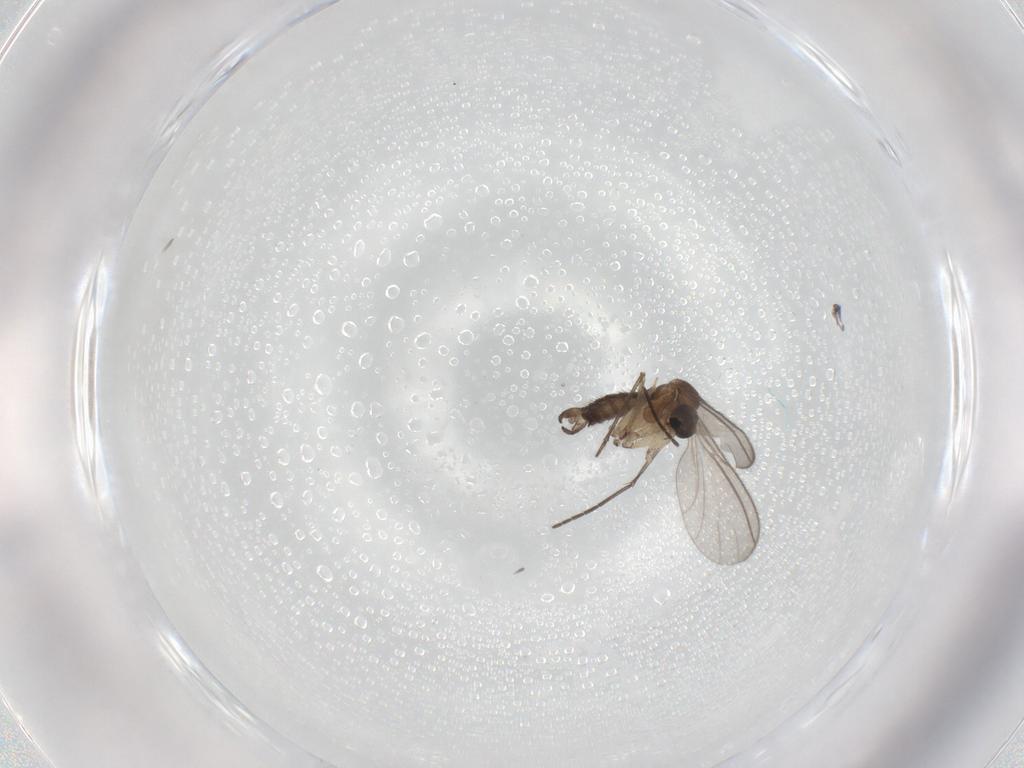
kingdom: Animalia
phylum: Arthropoda
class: Insecta
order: Diptera
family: Sciaridae
